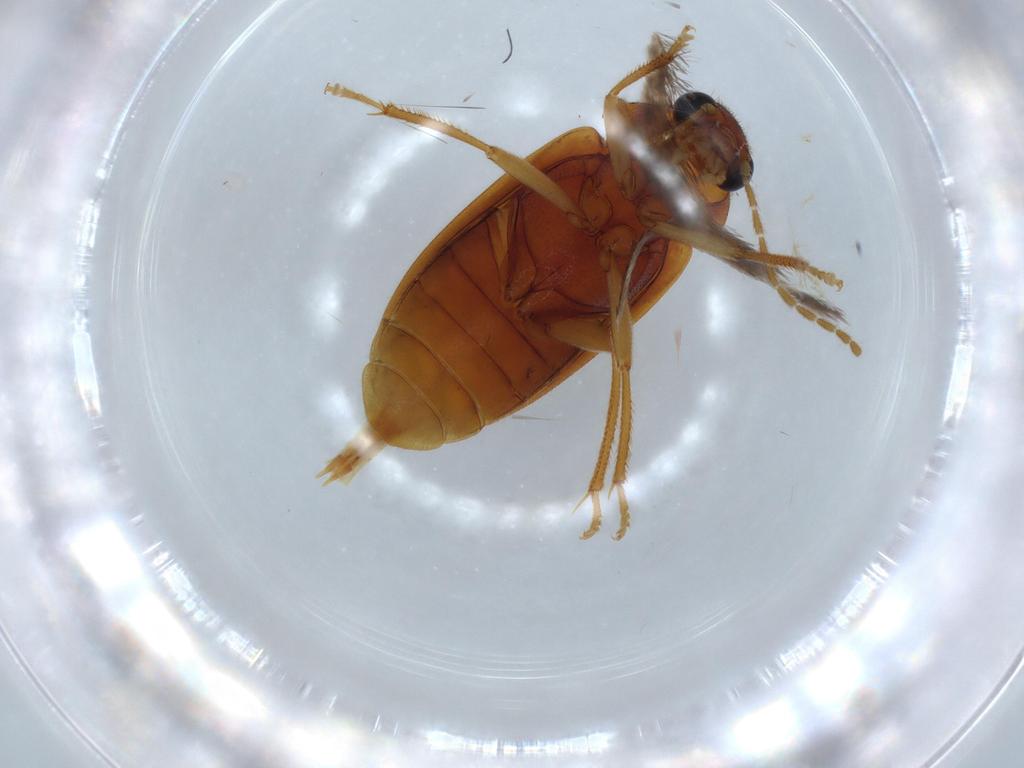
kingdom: Animalia
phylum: Arthropoda
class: Insecta
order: Coleoptera
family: Ptilodactylidae
